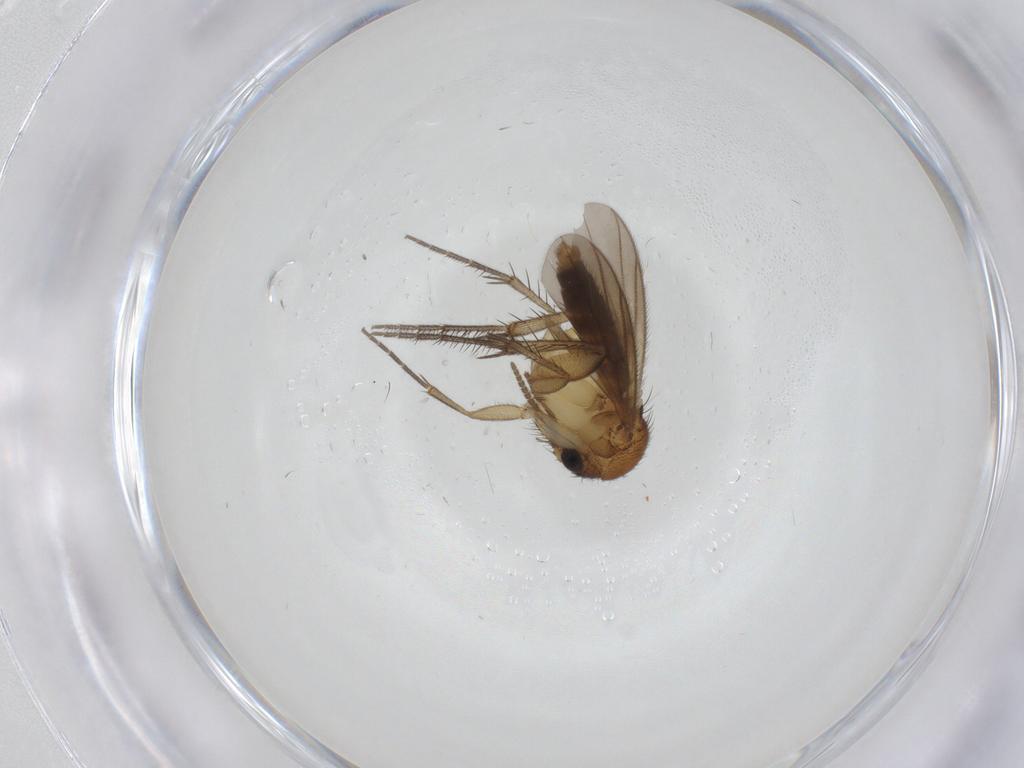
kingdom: Animalia
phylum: Arthropoda
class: Insecta
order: Diptera
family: Mycetophilidae
